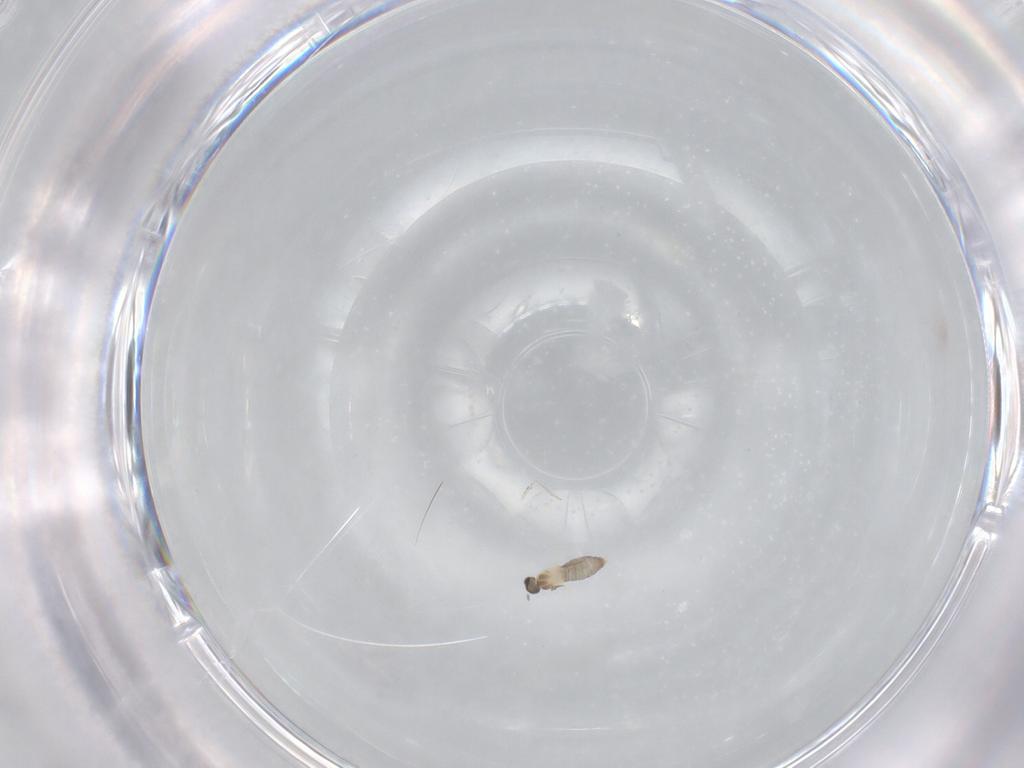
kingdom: Animalia
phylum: Arthropoda
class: Insecta
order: Diptera
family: Cecidomyiidae
